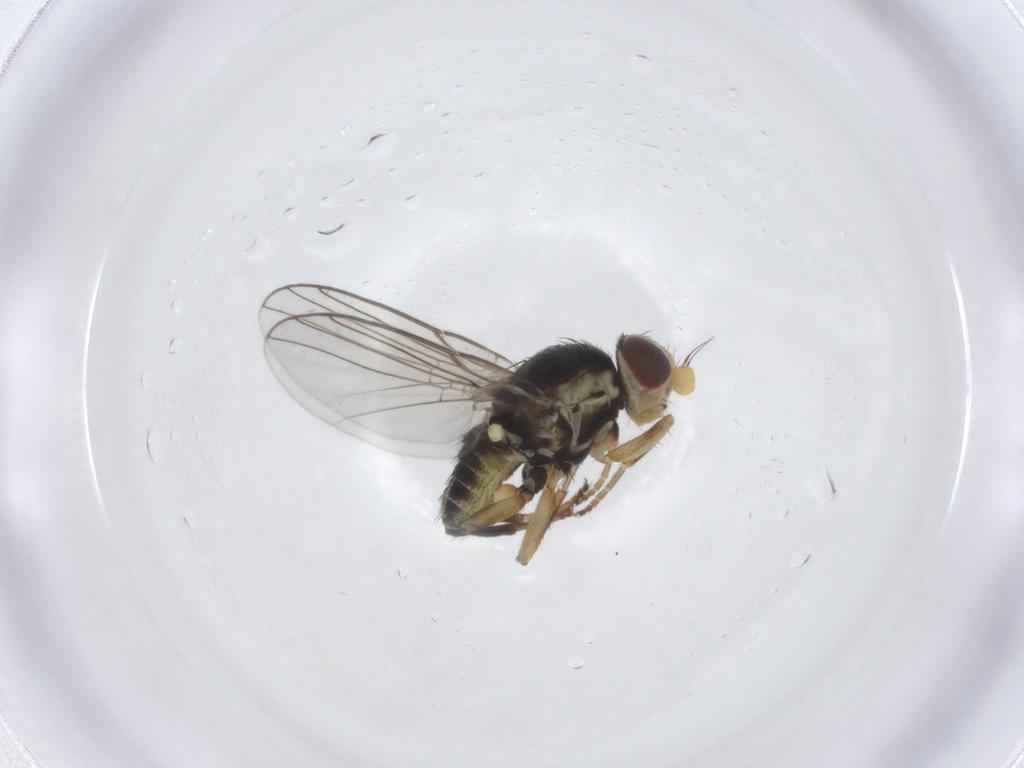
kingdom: Animalia
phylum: Arthropoda
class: Insecta
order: Diptera
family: Agromyzidae
